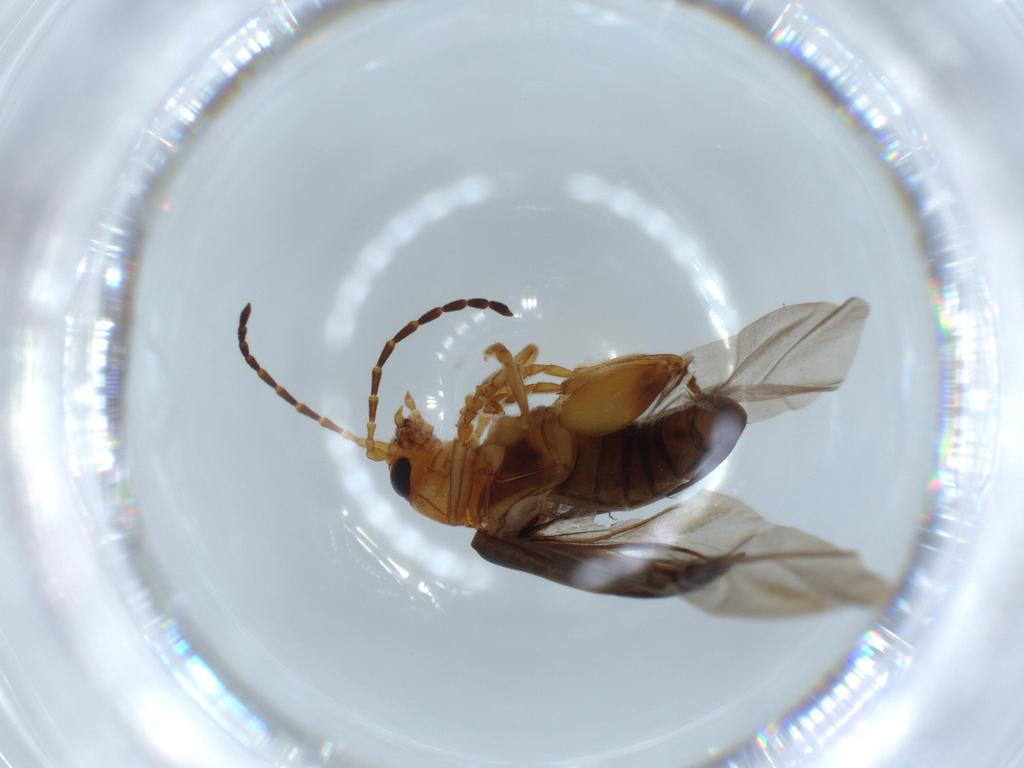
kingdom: Animalia
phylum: Arthropoda
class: Insecta
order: Coleoptera
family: Chrysomelidae
